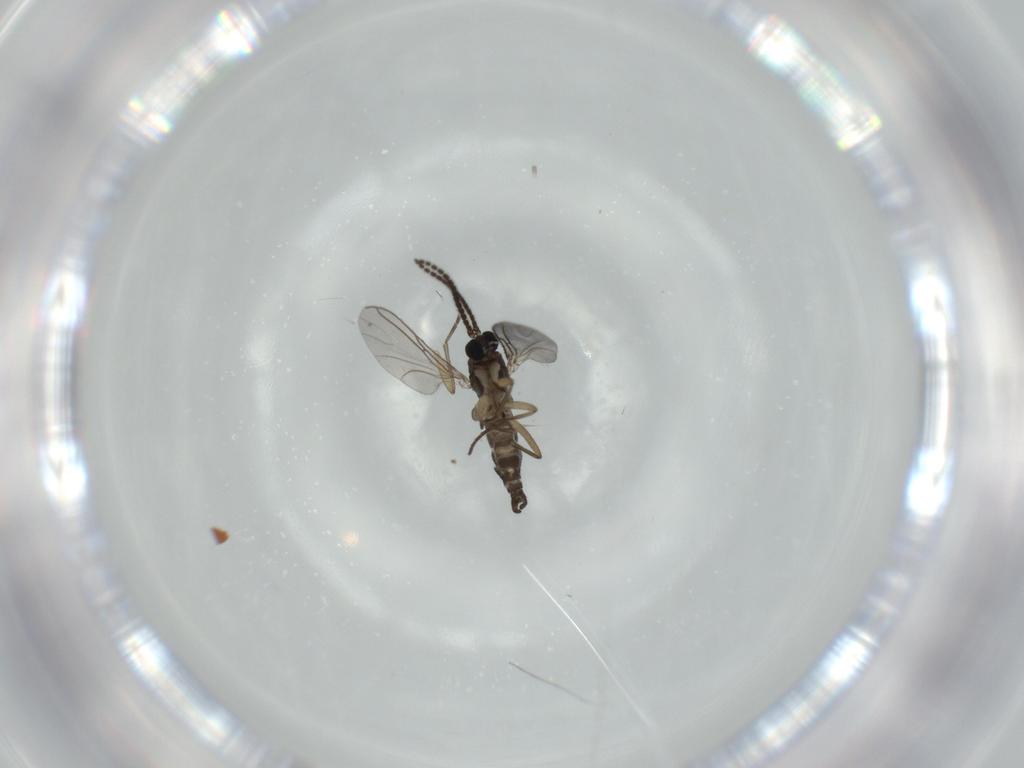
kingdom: Animalia
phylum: Arthropoda
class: Insecta
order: Diptera
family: Sciaridae
